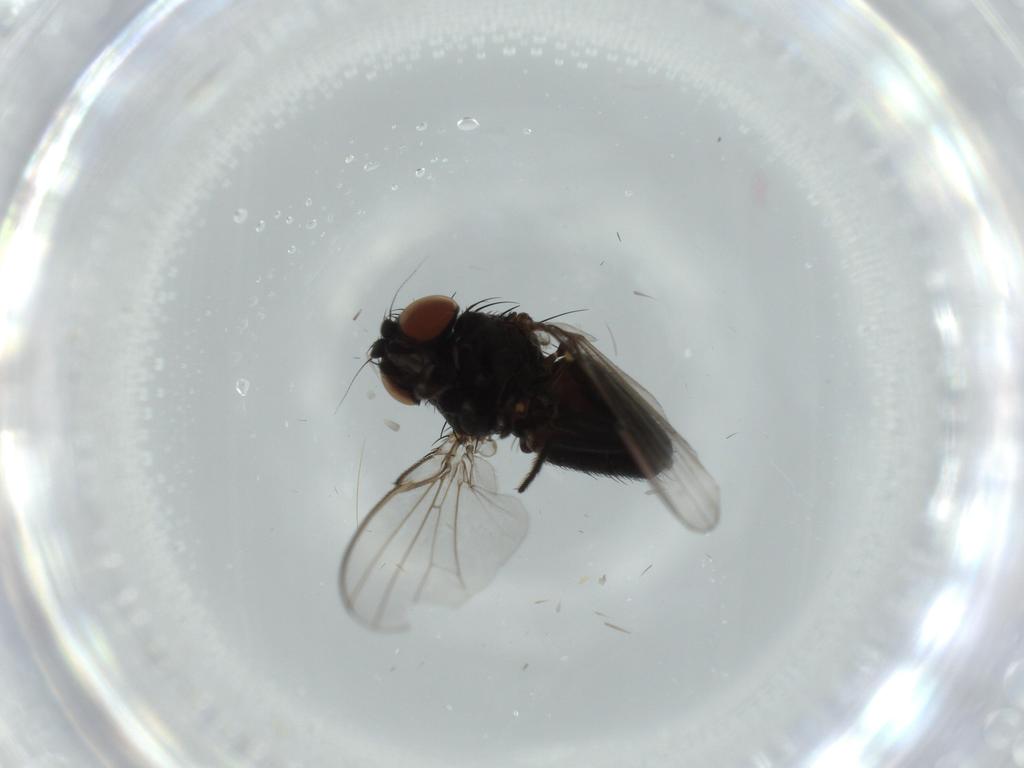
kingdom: Animalia
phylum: Arthropoda
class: Insecta
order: Diptera
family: Milichiidae
